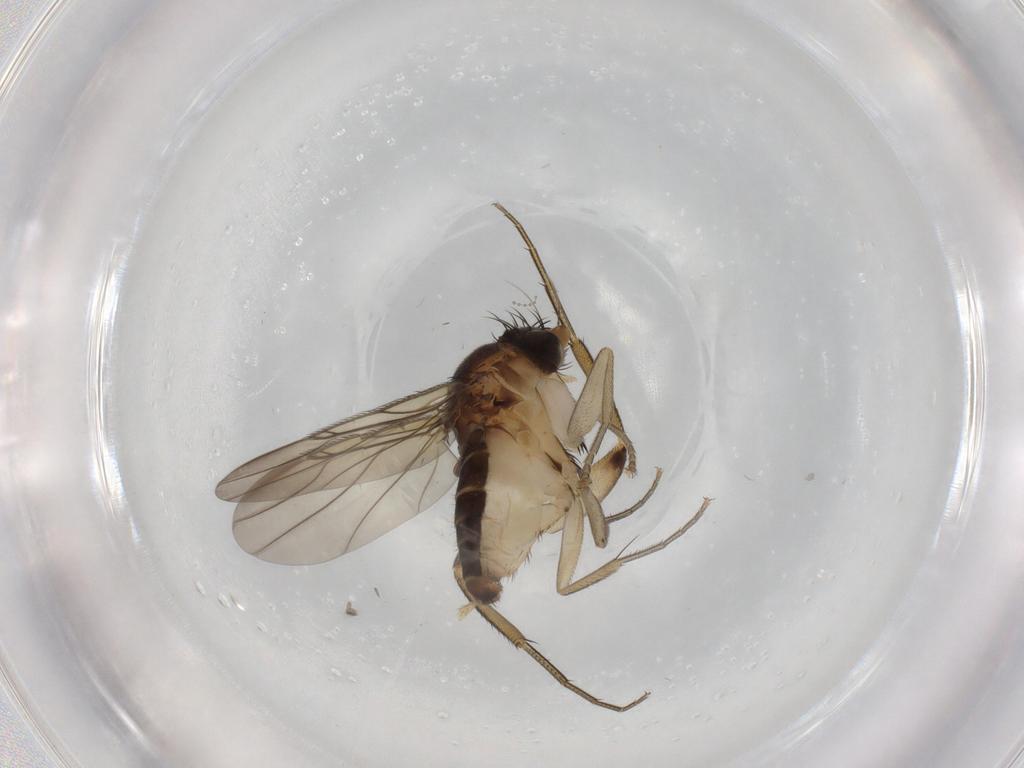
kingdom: Animalia
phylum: Arthropoda
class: Insecta
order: Diptera
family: Phoridae
